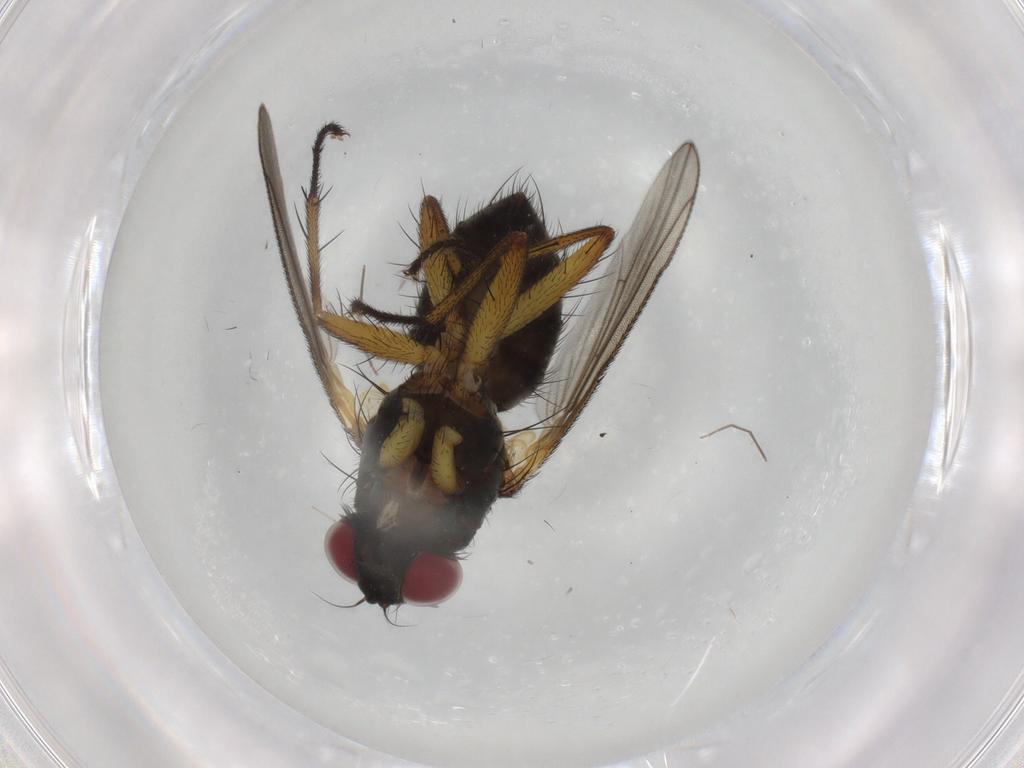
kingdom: Animalia
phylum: Arthropoda
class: Insecta
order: Diptera
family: Muscidae
